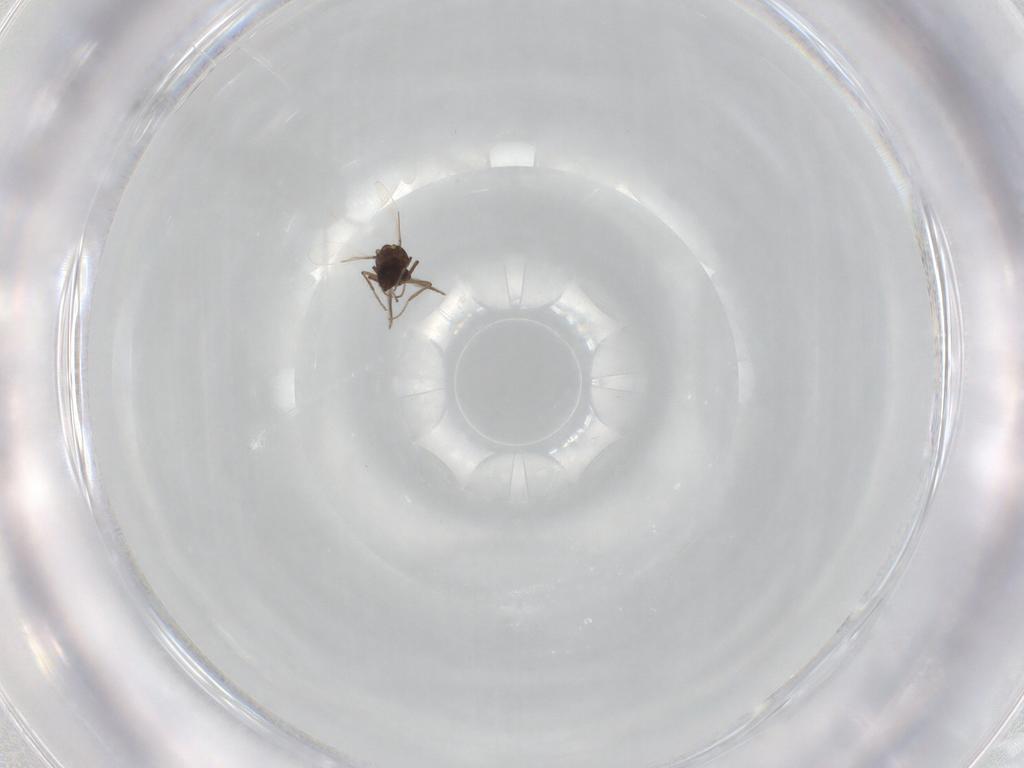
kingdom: Animalia
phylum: Arthropoda
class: Insecta
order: Diptera
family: Ceratopogonidae
